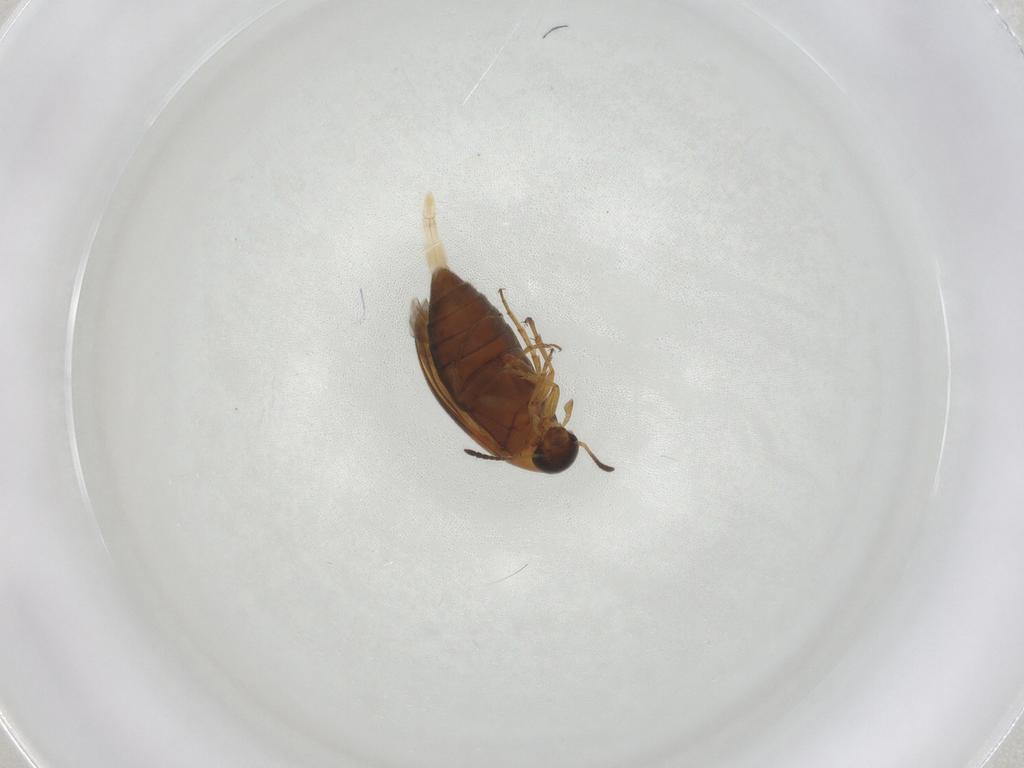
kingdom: Animalia
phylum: Arthropoda
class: Insecta
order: Coleoptera
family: Scraptiidae
